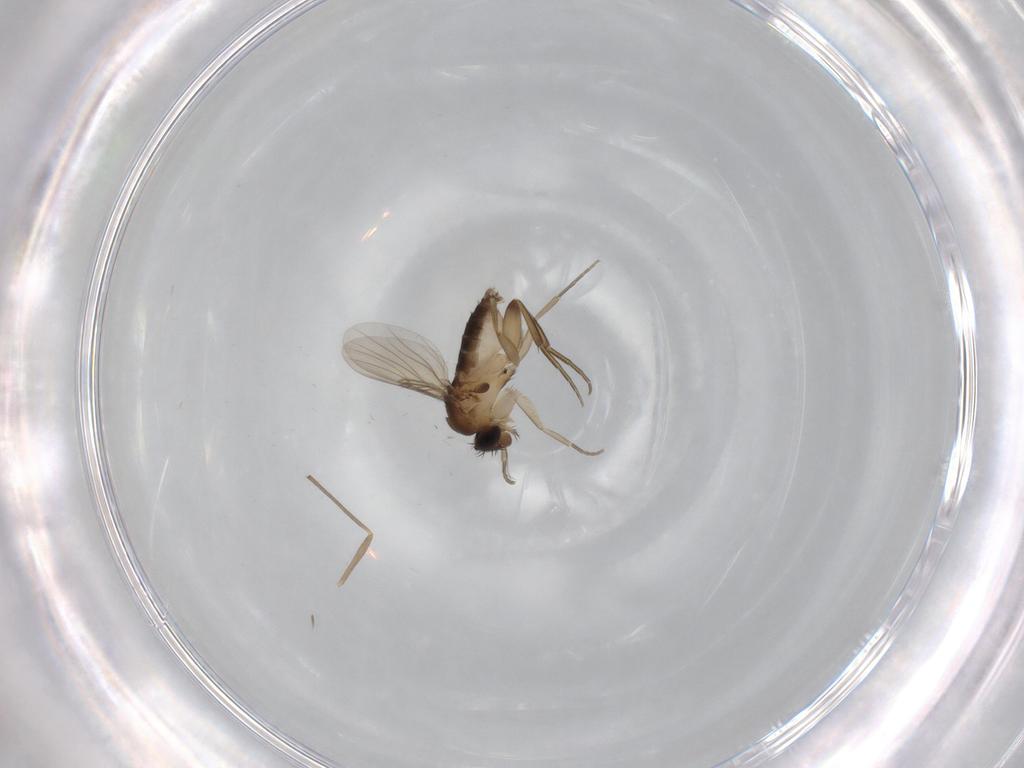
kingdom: Animalia
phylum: Arthropoda
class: Insecta
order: Diptera
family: Phoridae
